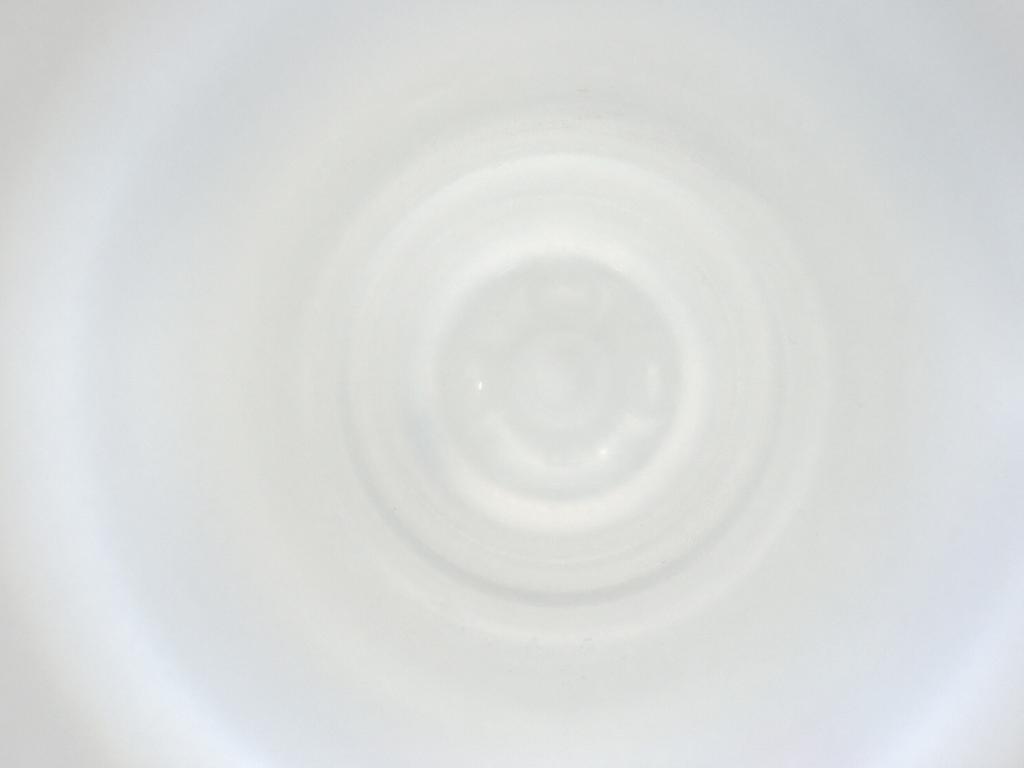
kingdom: Animalia
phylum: Arthropoda
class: Insecta
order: Diptera
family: Cecidomyiidae
